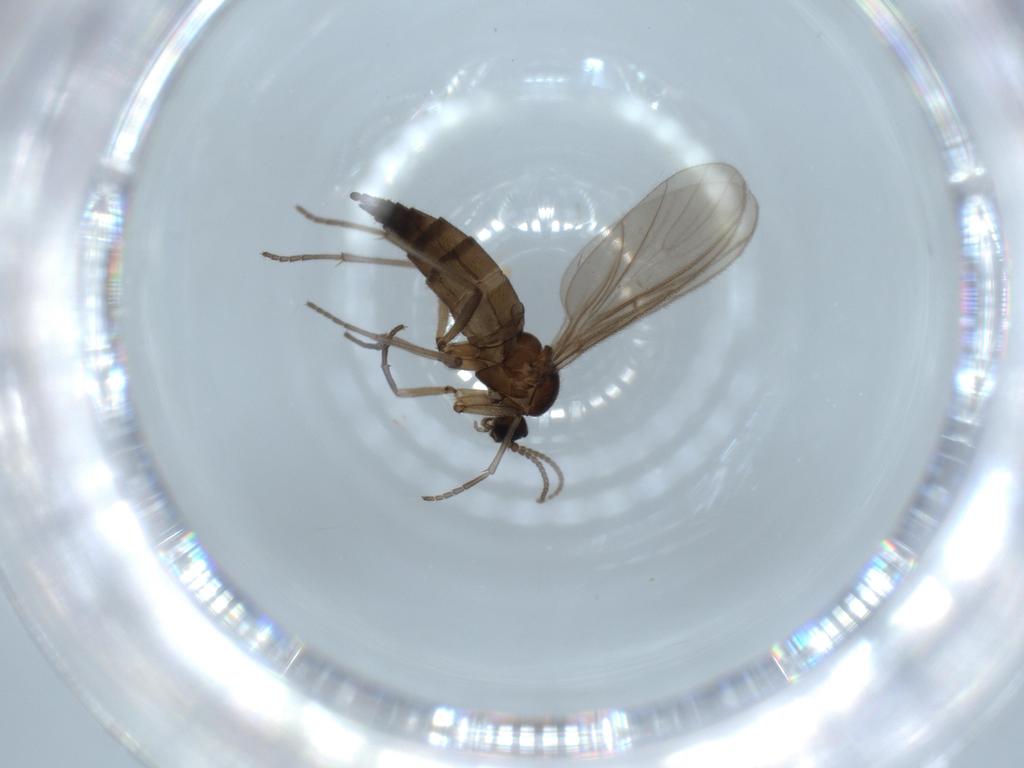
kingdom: Animalia
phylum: Arthropoda
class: Insecta
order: Diptera
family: Sciaridae
